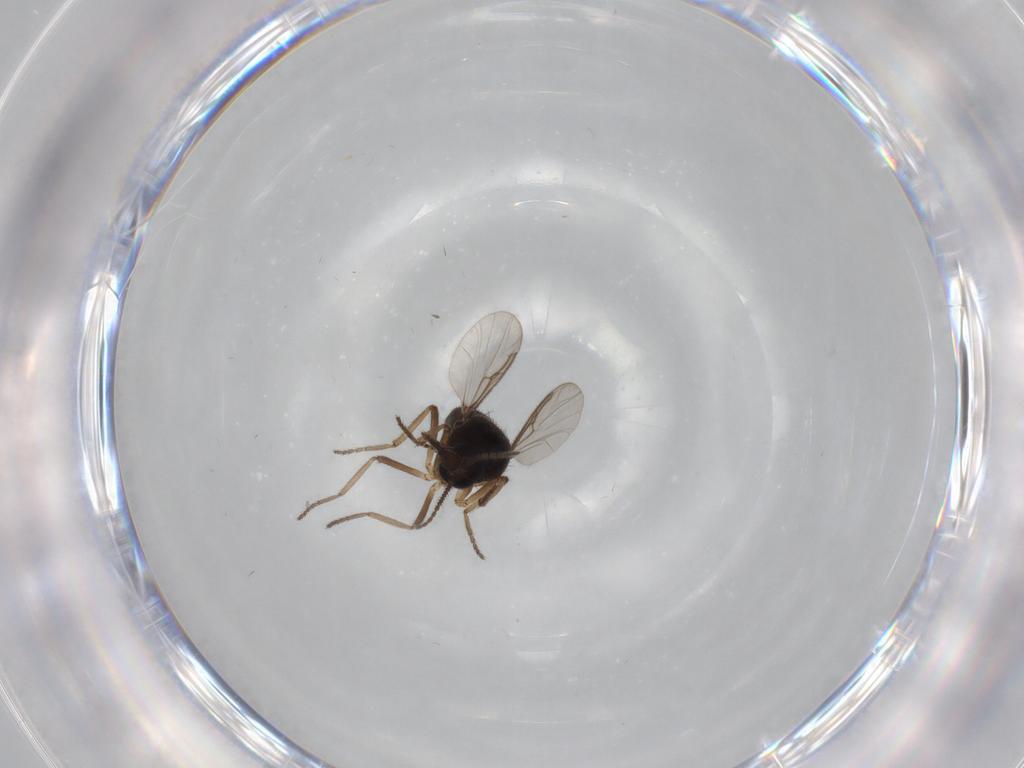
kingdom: Animalia
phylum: Arthropoda
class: Insecta
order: Diptera
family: Ceratopogonidae
